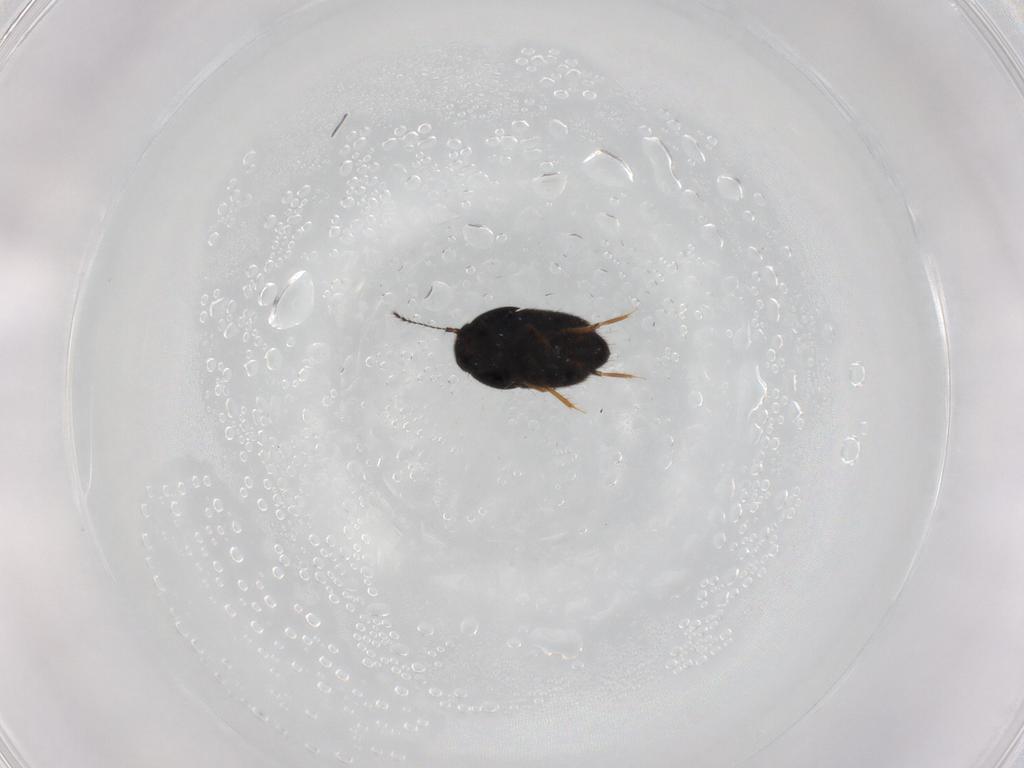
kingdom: Animalia
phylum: Arthropoda
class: Insecta
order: Coleoptera
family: Ptiliidae
